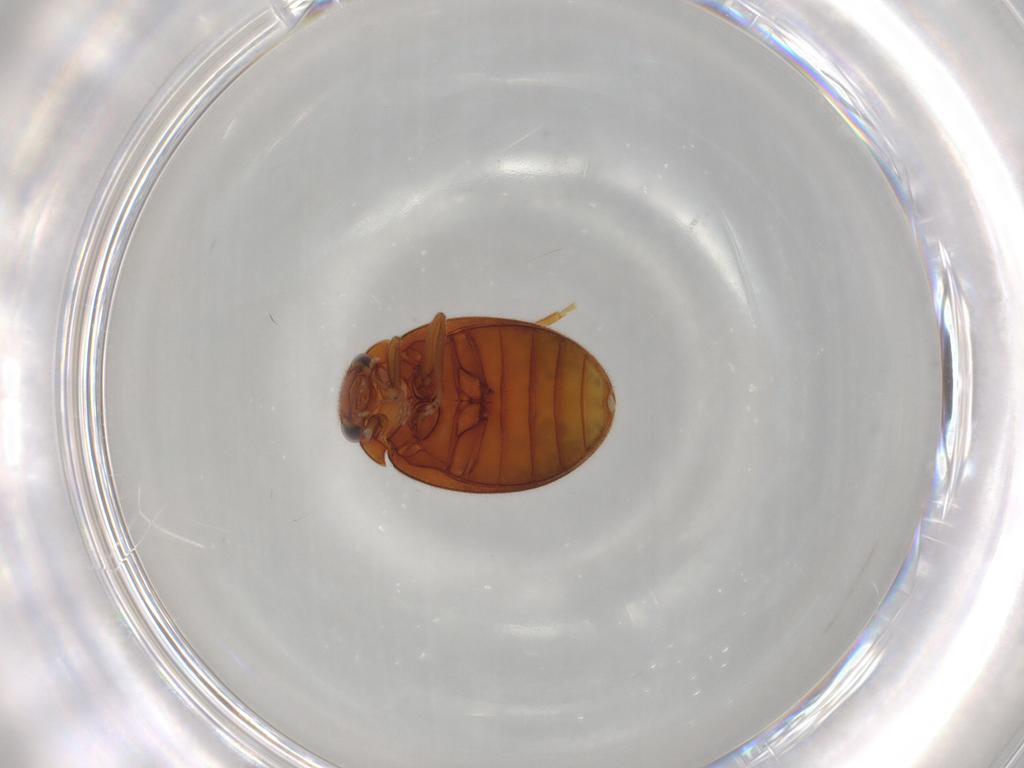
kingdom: Animalia
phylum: Arthropoda
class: Insecta
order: Coleoptera
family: Scirtidae
